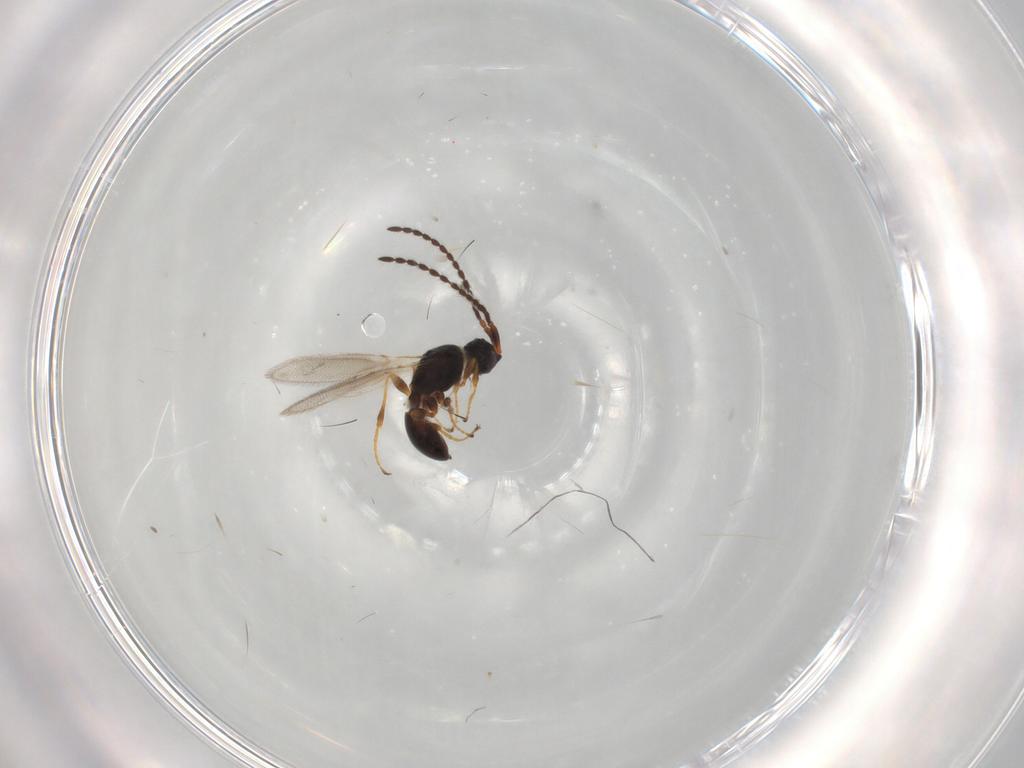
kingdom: Animalia
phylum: Arthropoda
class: Insecta
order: Hymenoptera
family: Diapriidae
